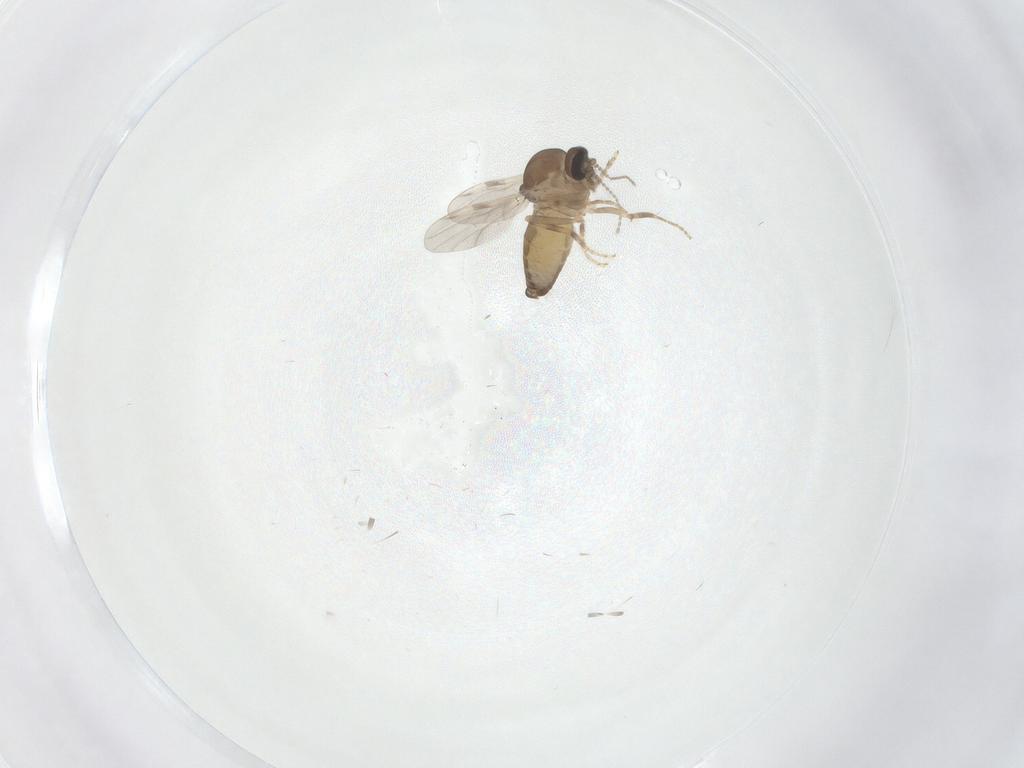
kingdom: Animalia
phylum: Arthropoda
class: Insecta
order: Diptera
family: Ceratopogonidae
